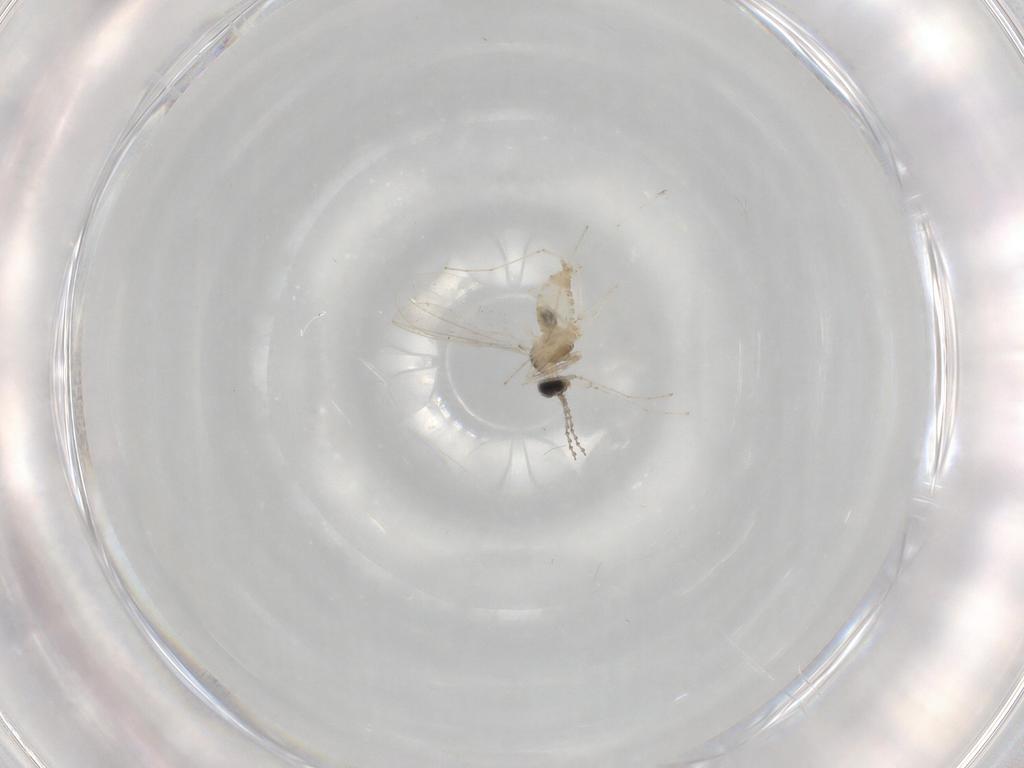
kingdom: Animalia
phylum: Arthropoda
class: Insecta
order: Diptera
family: Cecidomyiidae
